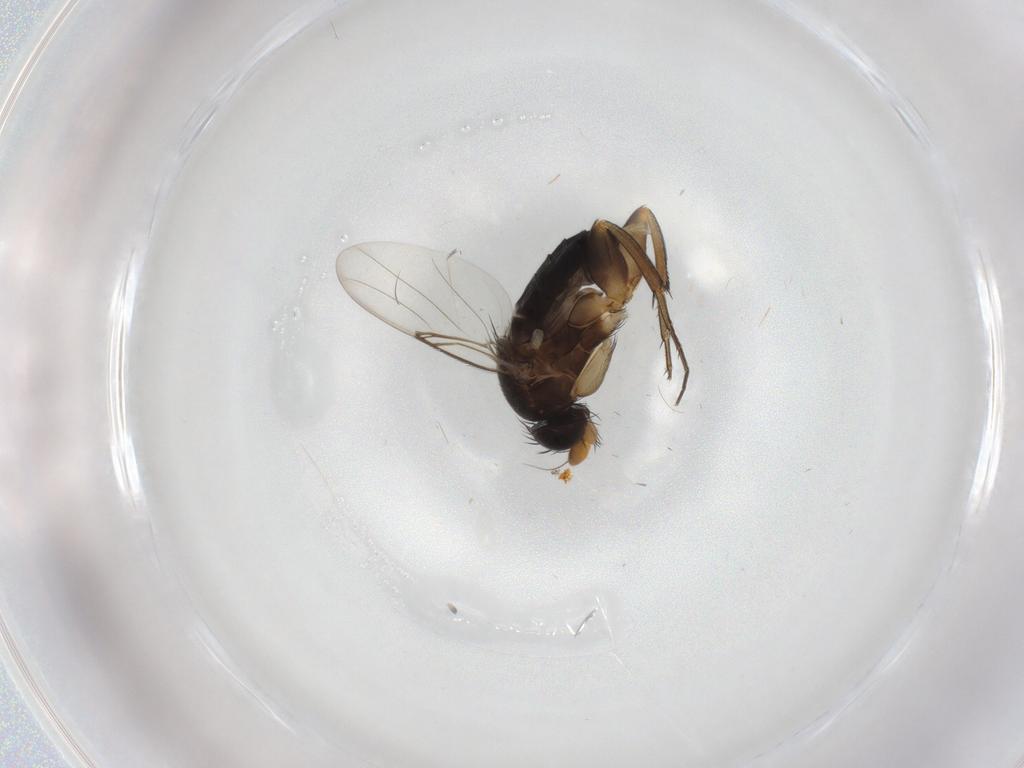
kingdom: Animalia
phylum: Arthropoda
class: Insecta
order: Diptera
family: Phoridae
